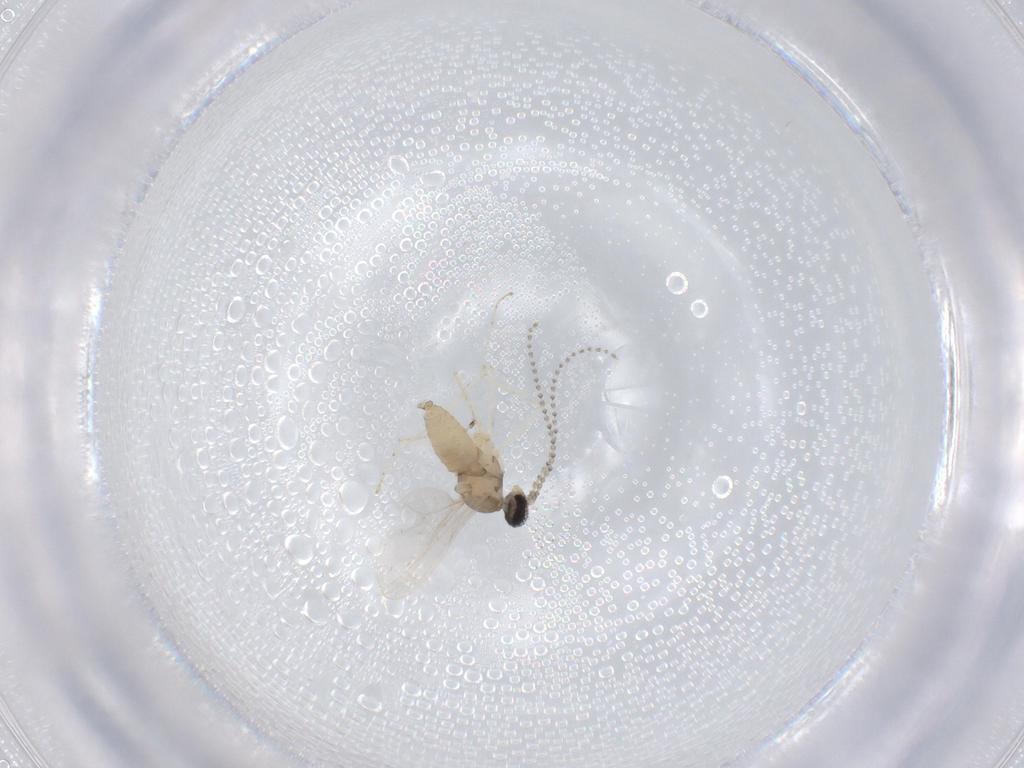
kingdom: Animalia
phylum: Arthropoda
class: Insecta
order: Diptera
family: Cecidomyiidae
